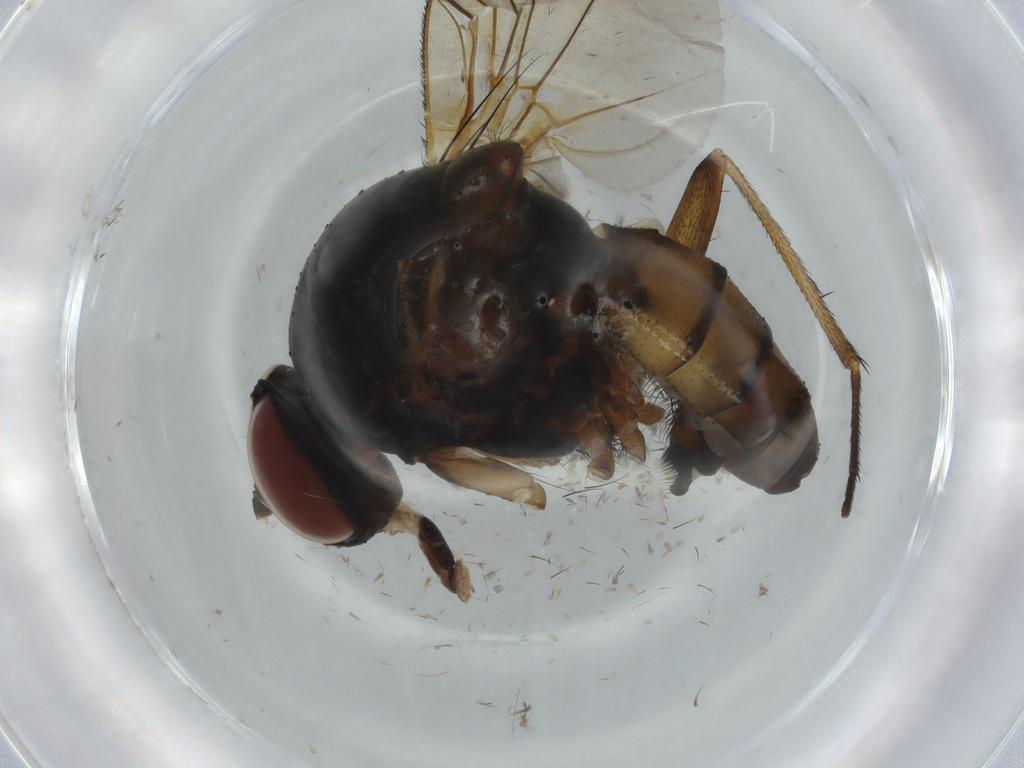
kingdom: Animalia
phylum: Arthropoda
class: Insecta
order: Diptera
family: Anthomyiidae
